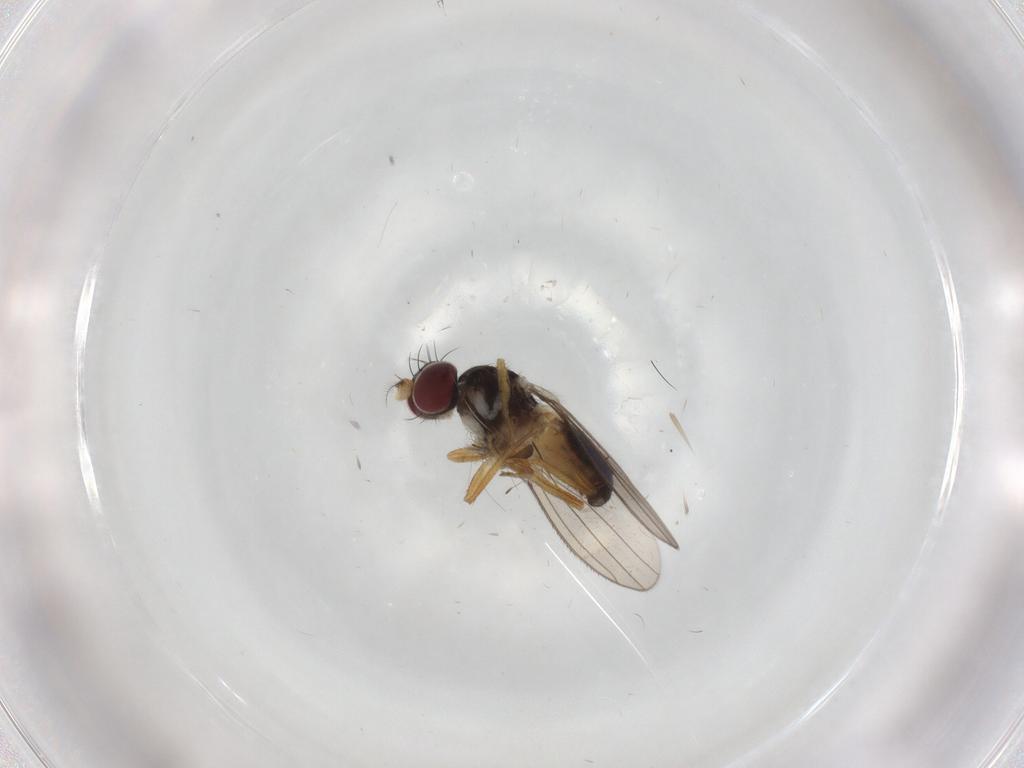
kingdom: Animalia
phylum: Arthropoda
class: Insecta
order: Diptera
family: Anthomyzidae
